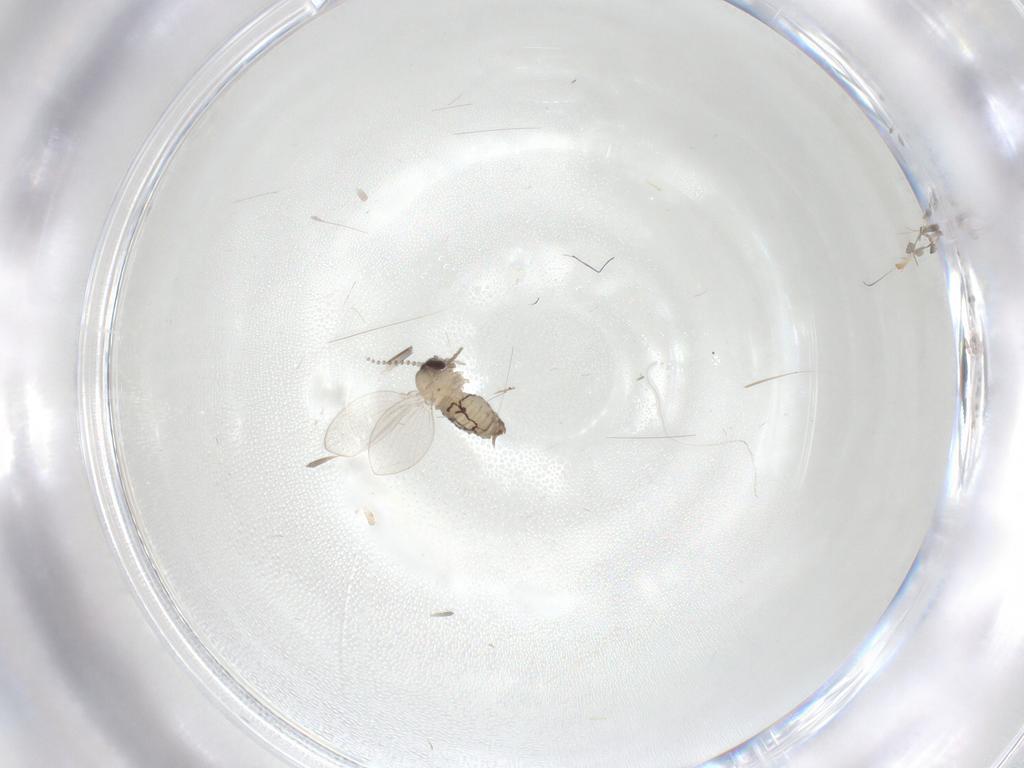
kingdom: Animalia
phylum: Arthropoda
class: Insecta
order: Diptera
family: Psychodidae
